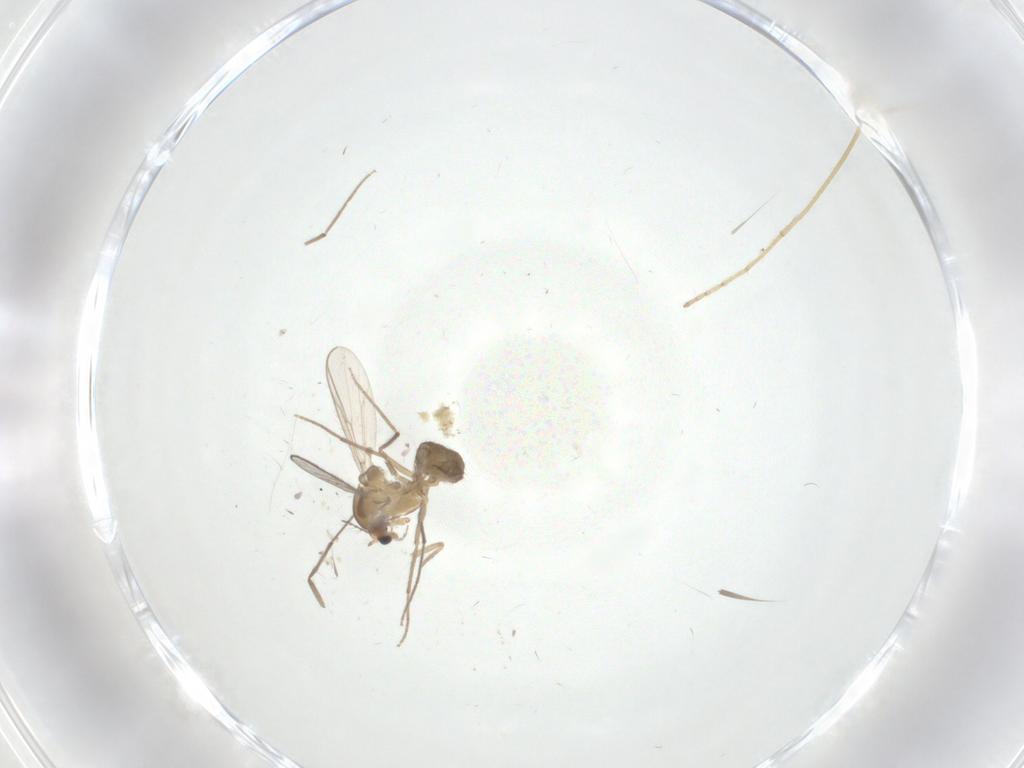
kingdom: Animalia
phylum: Arthropoda
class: Insecta
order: Diptera
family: Chironomidae
